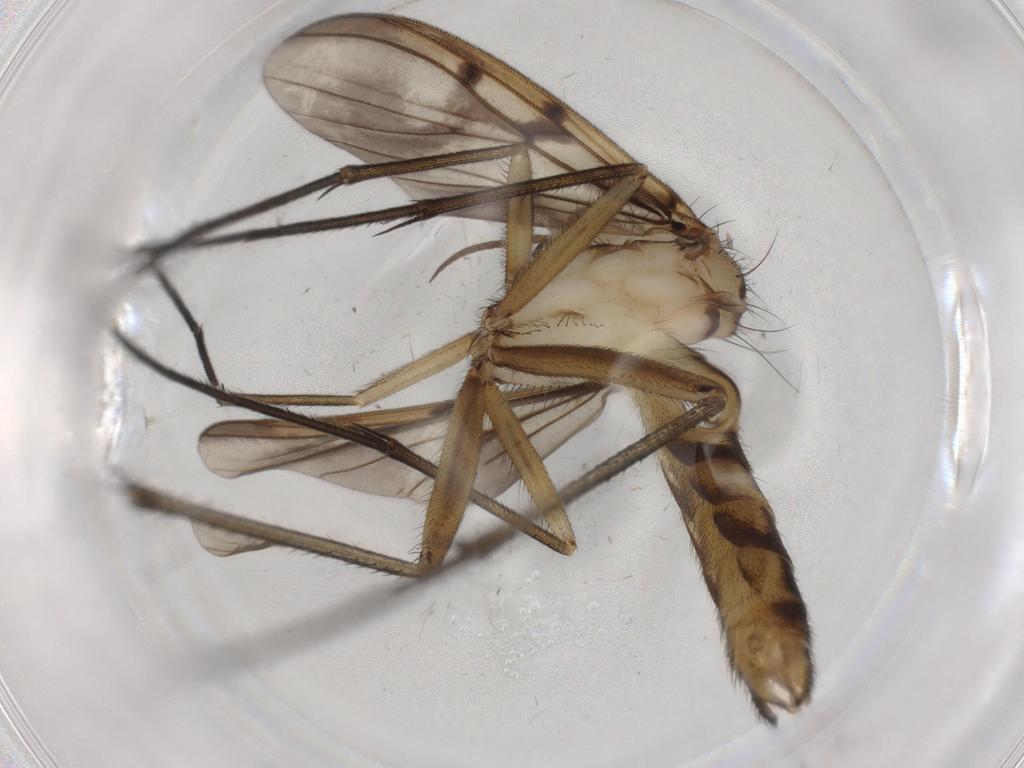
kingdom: Animalia
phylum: Arthropoda
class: Insecta
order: Diptera
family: Mycetophilidae
